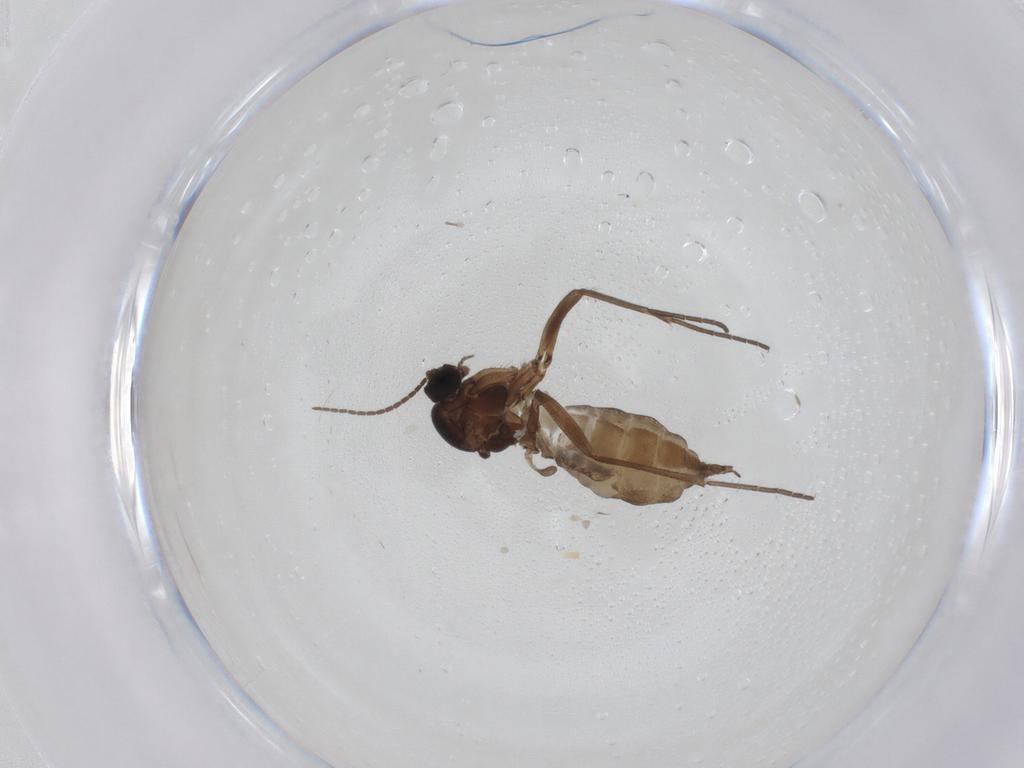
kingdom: Animalia
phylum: Arthropoda
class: Insecta
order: Diptera
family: Sciaridae
